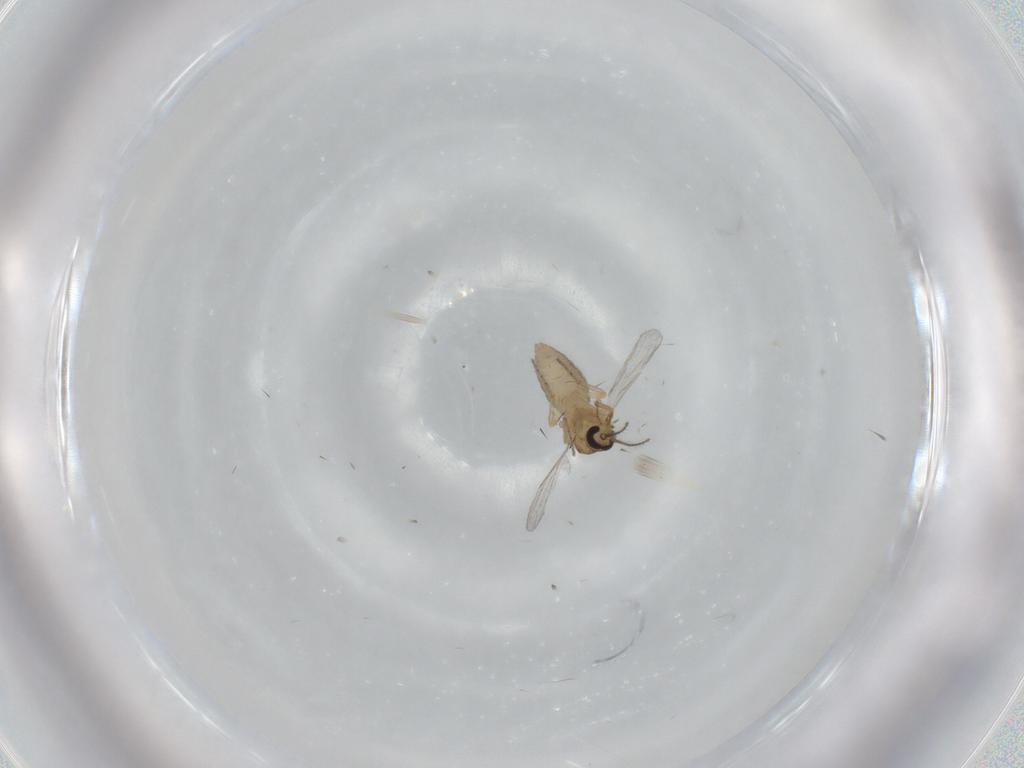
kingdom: Animalia
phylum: Arthropoda
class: Insecta
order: Diptera
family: Ceratopogonidae
